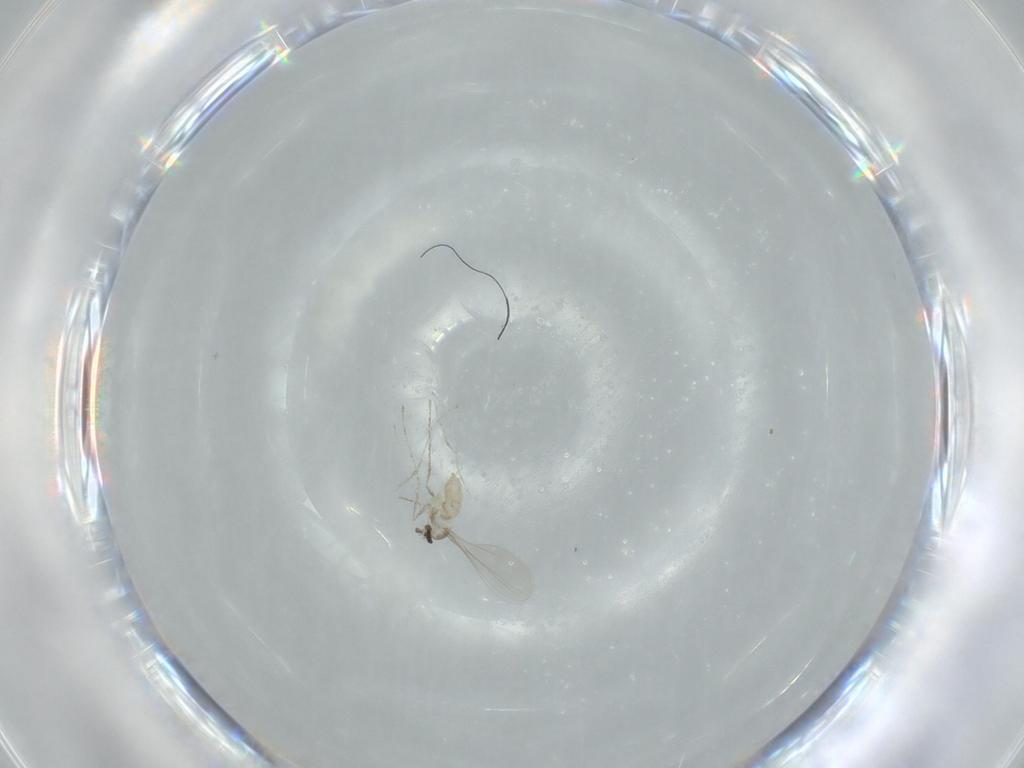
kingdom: Animalia
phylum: Arthropoda
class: Insecta
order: Diptera
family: Cecidomyiidae
